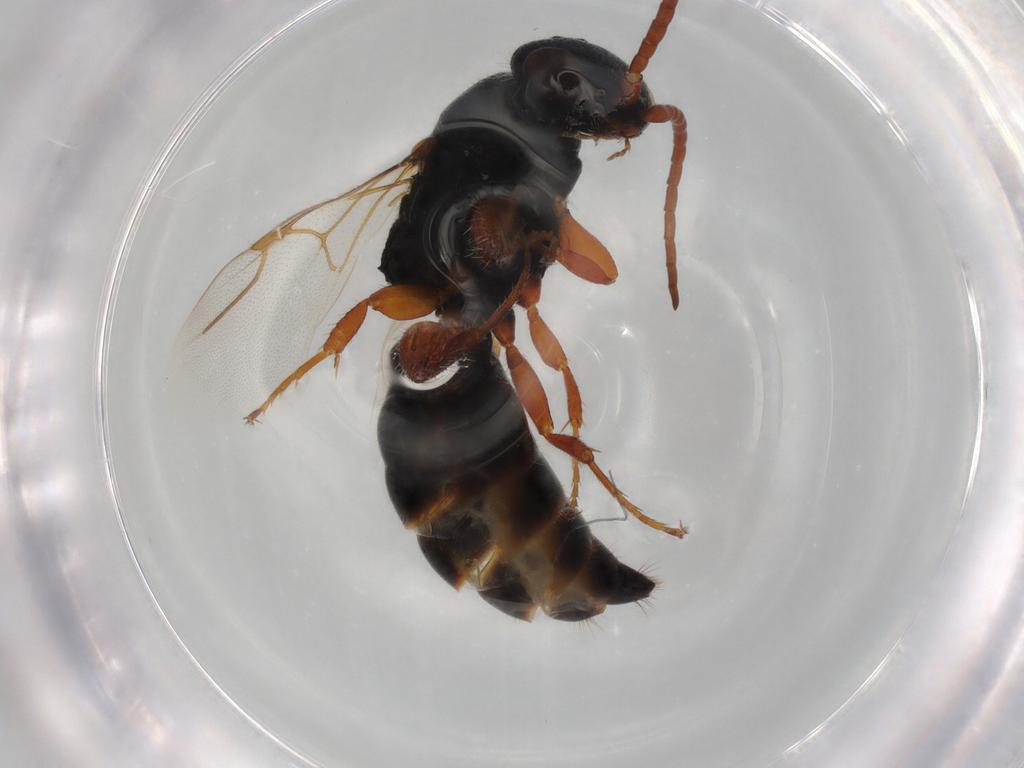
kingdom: Animalia
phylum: Arthropoda
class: Insecta
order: Hymenoptera
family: Bethylidae
